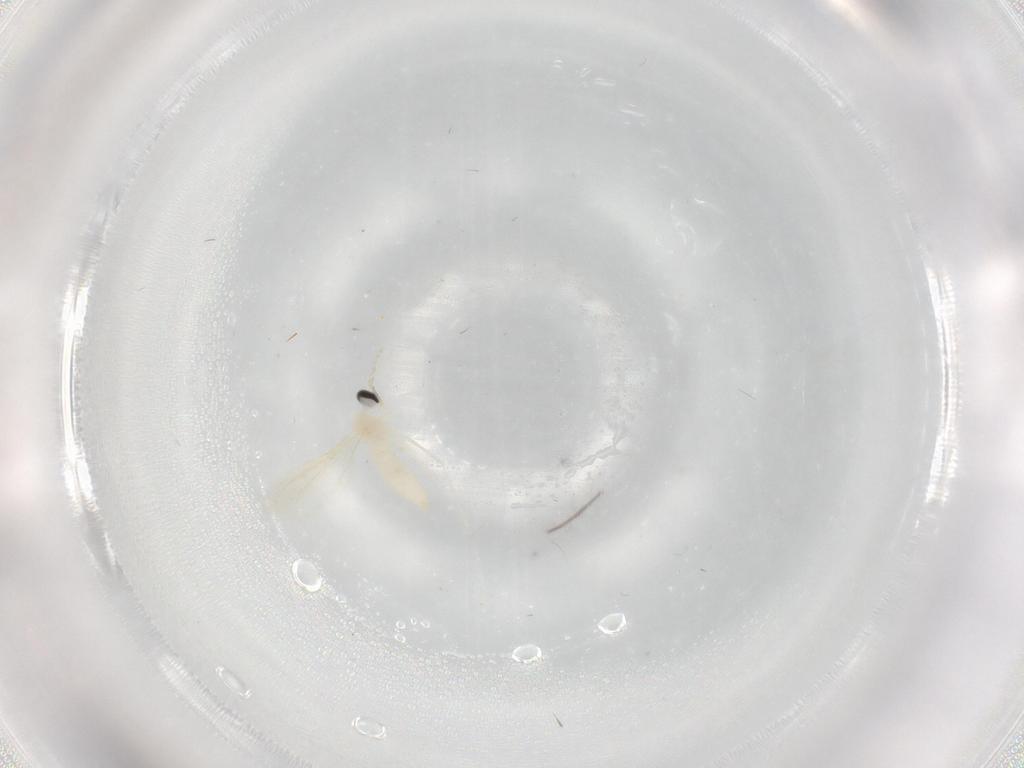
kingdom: Animalia
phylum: Arthropoda
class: Insecta
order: Diptera
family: Cecidomyiidae
